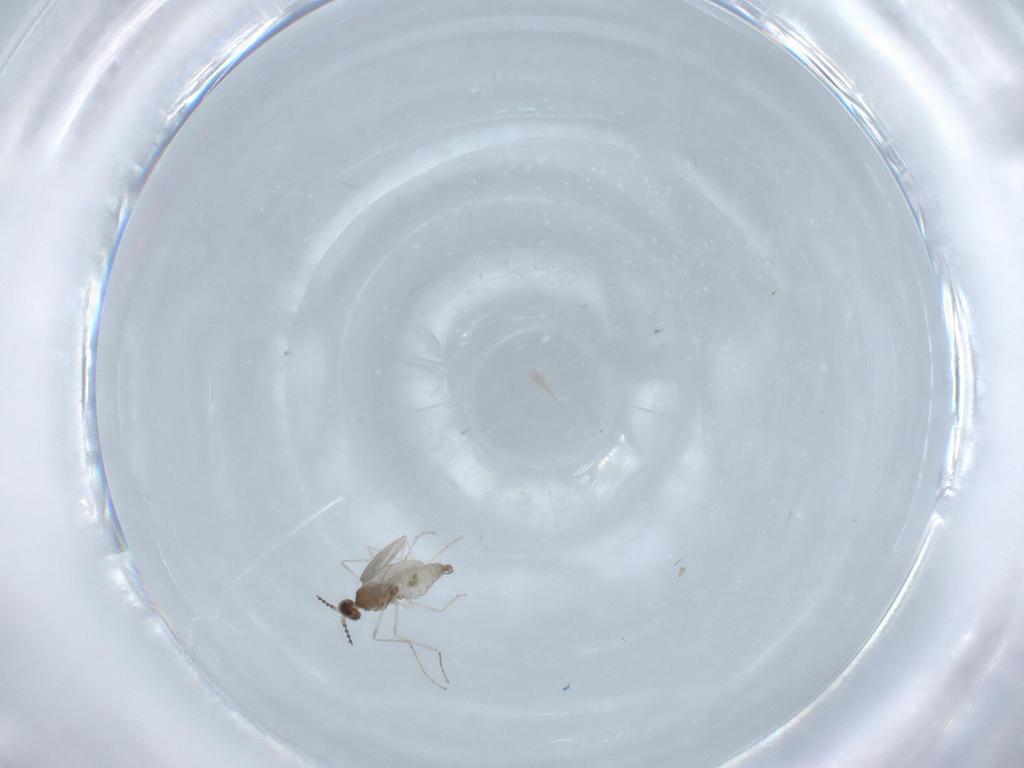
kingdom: Animalia
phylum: Arthropoda
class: Insecta
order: Diptera
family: Cecidomyiidae
